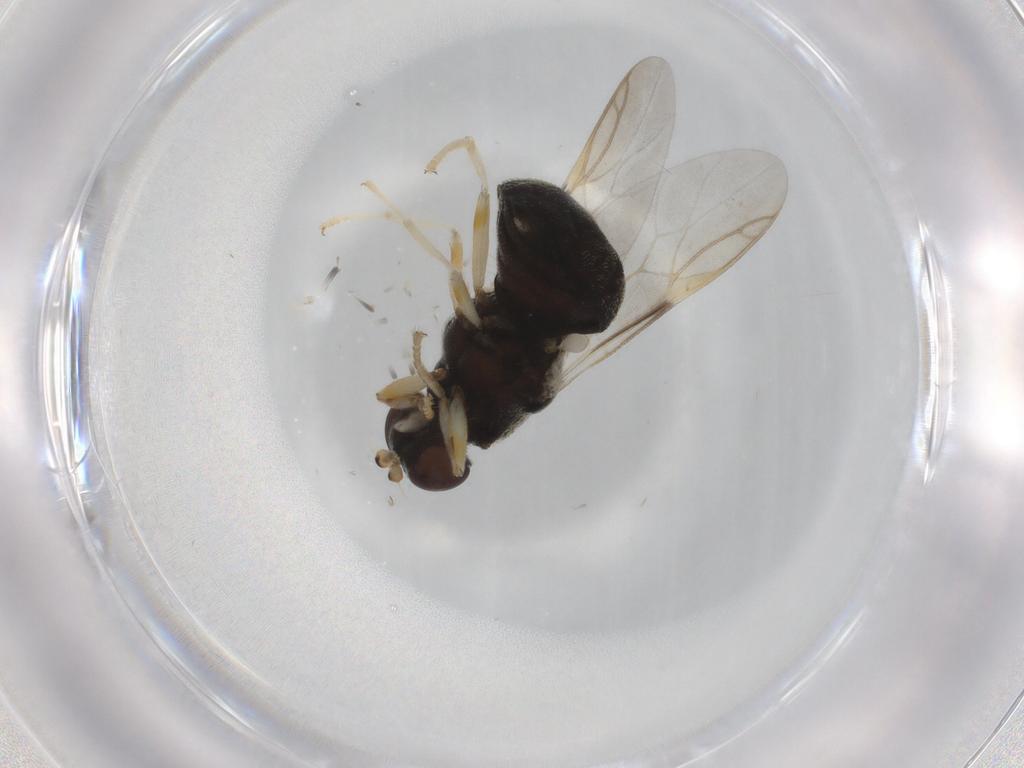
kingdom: Animalia
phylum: Arthropoda
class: Insecta
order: Diptera
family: Stratiomyidae
